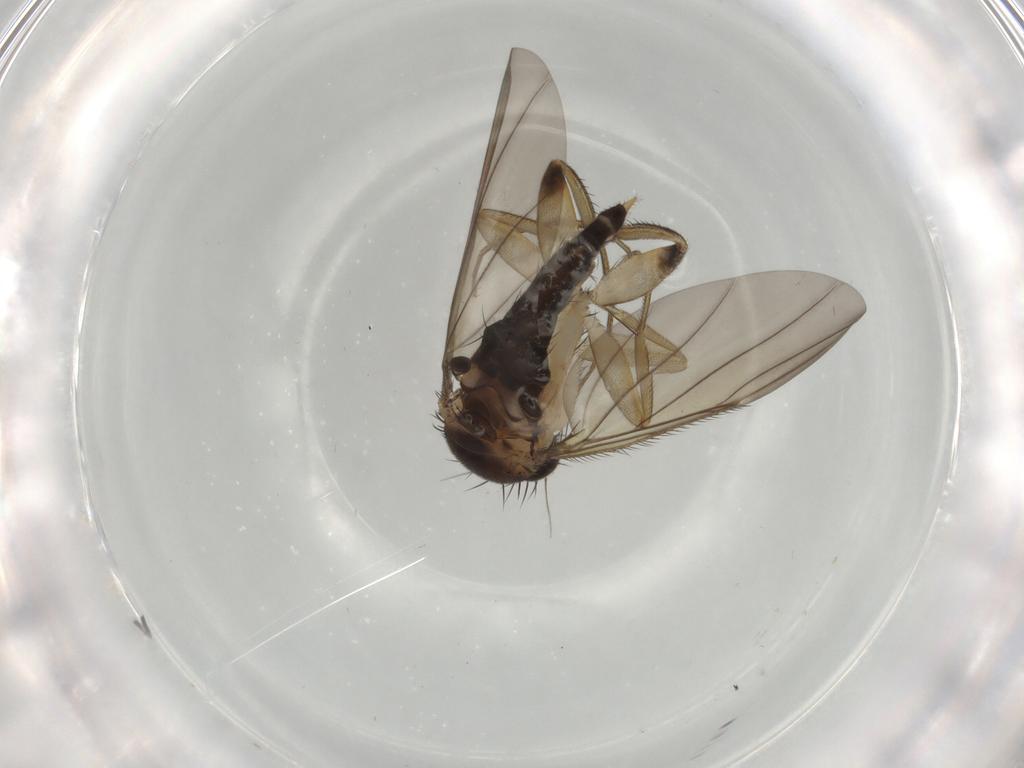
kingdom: Animalia
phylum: Arthropoda
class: Insecta
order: Diptera
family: Phoridae
